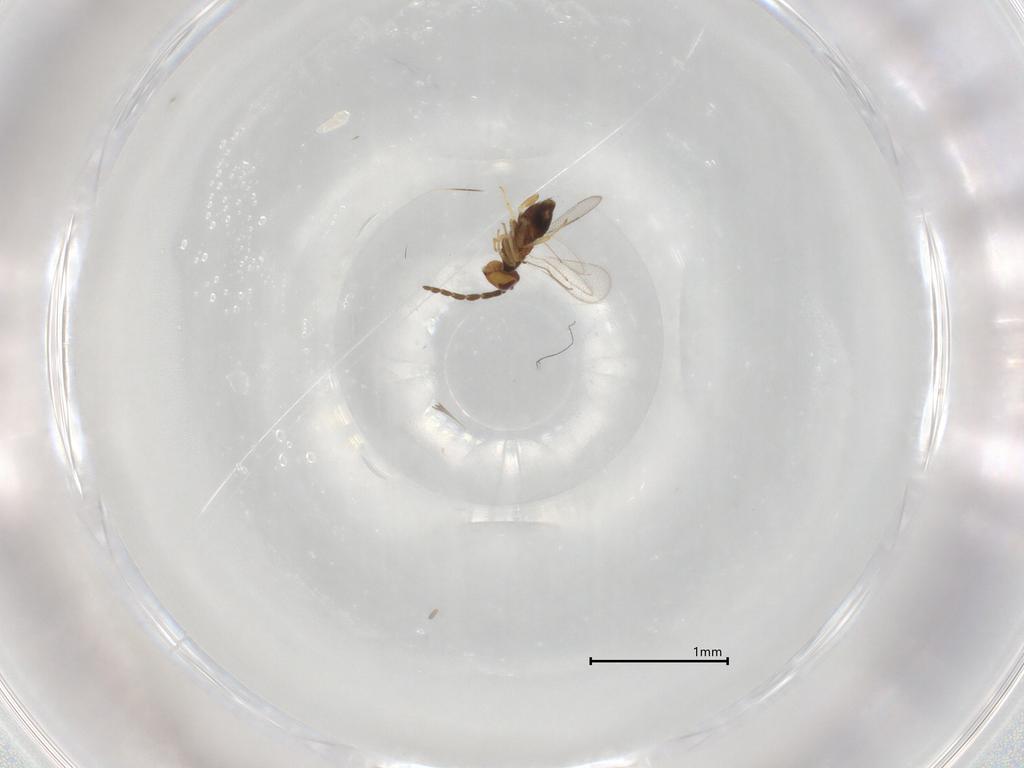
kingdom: Animalia
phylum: Arthropoda
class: Insecta
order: Hymenoptera
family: Aphelinidae
